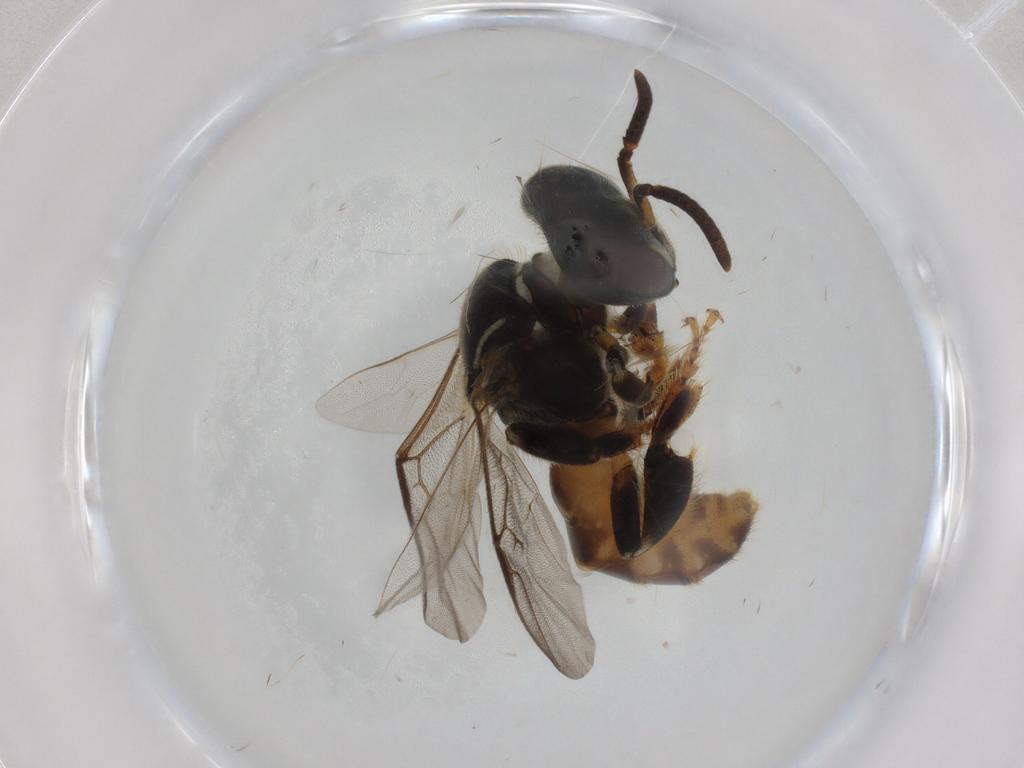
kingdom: Animalia
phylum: Arthropoda
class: Insecta
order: Hymenoptera
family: Apidae
